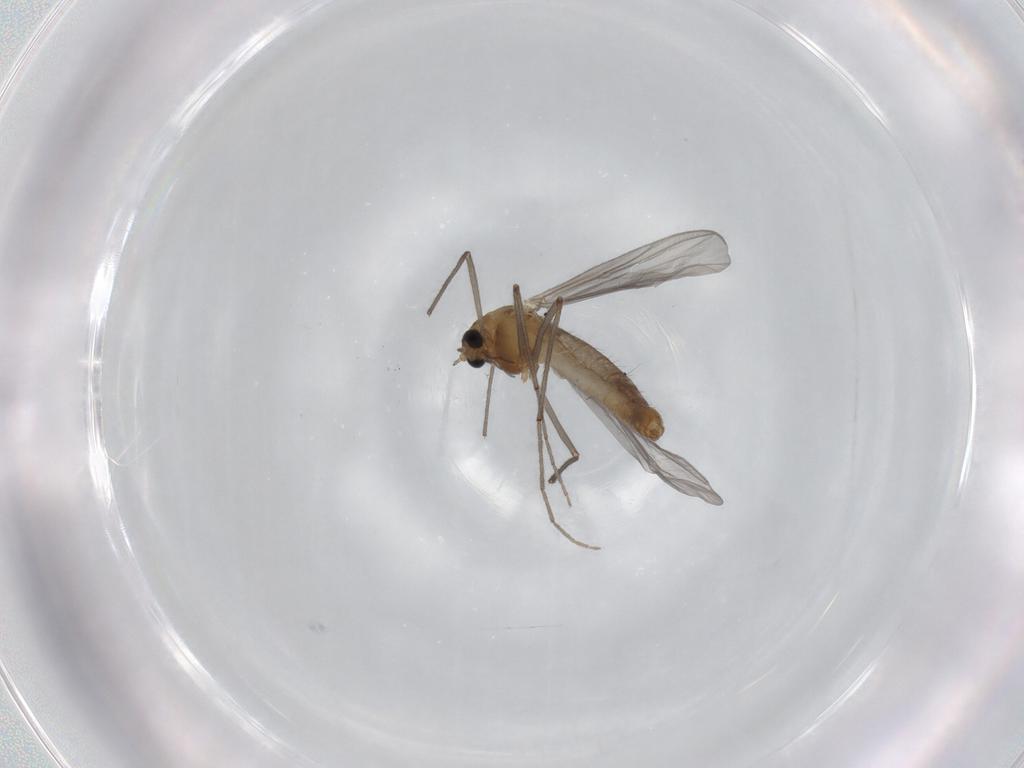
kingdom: Animalia
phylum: Arthropoda
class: Insecta
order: Diptera
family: Chironomidae
